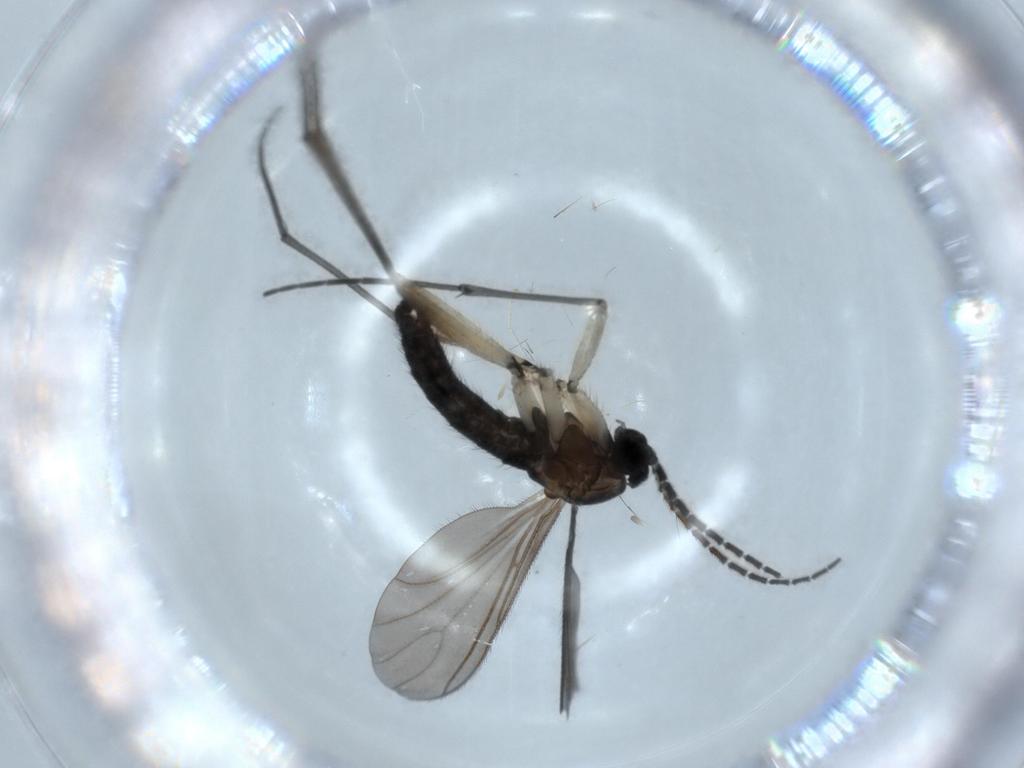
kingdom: Animalia
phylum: Arthropoda
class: Insecta
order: Diptera
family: Sciaridae
